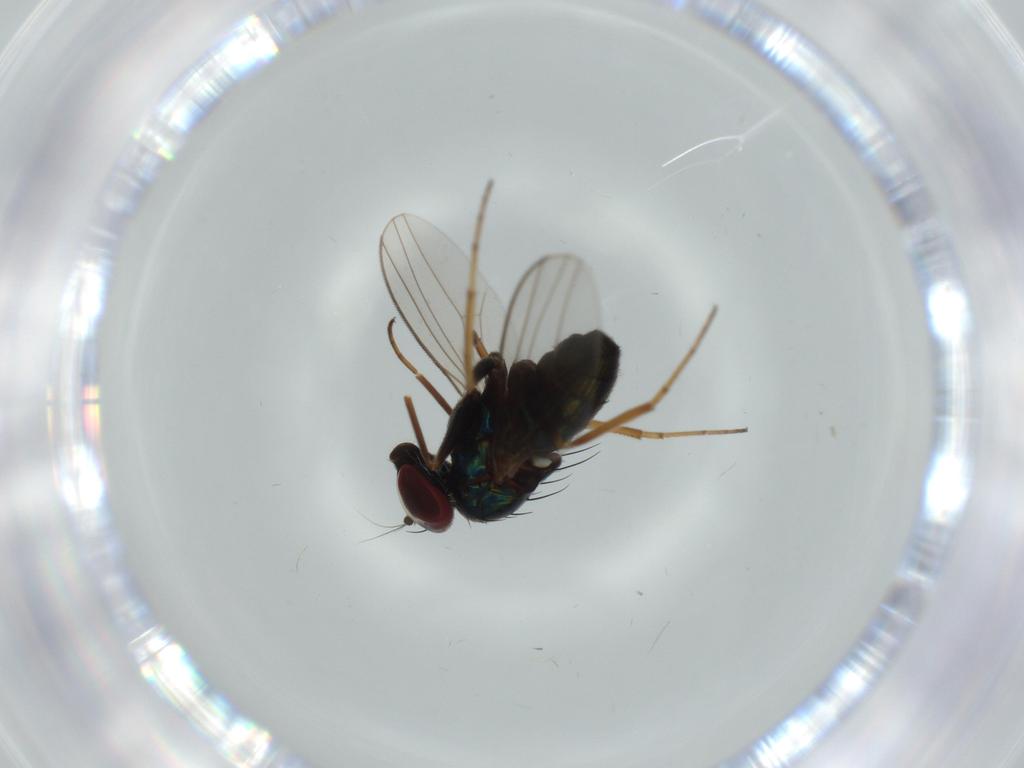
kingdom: Animalia
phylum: Arthropoda
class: Insecta
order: Diptera
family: Dolichopodidae
